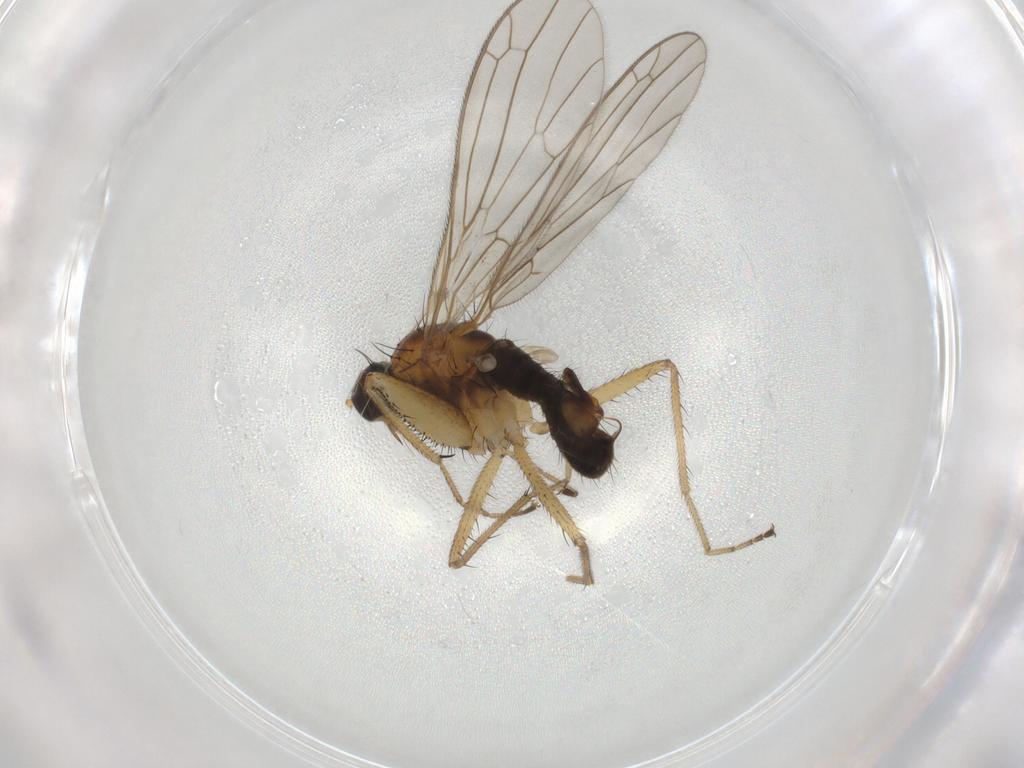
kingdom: Animalia
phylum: Arthropoda
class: Insecta
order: Diptera
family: Empididae
